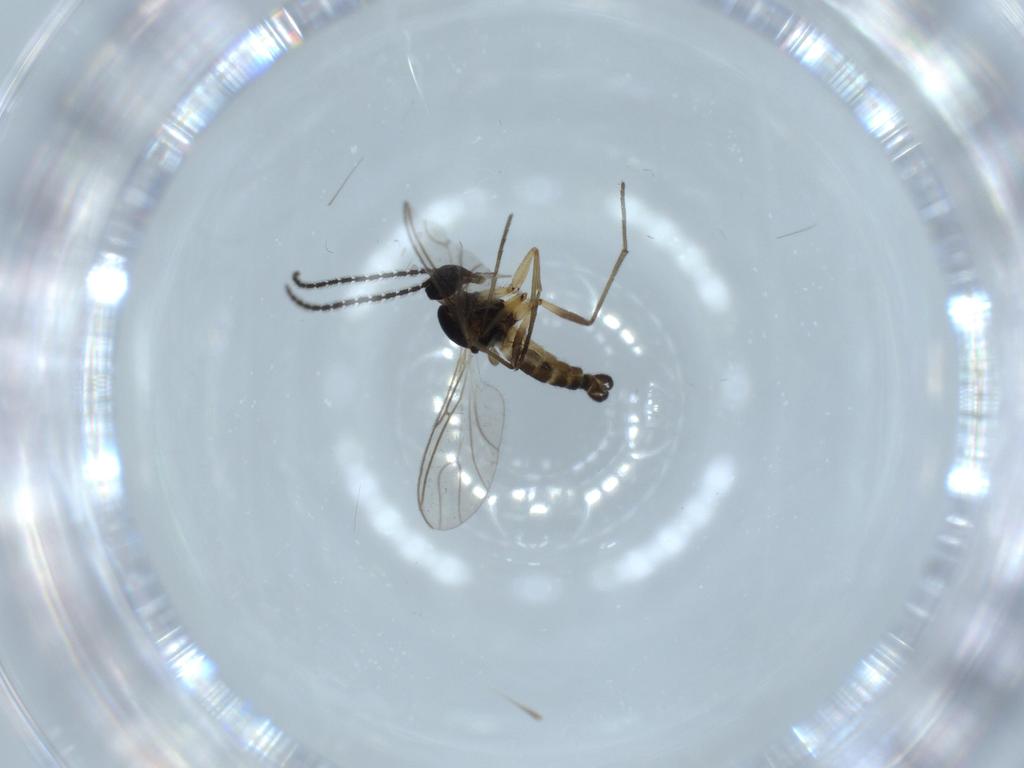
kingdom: Animalia
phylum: Arthropoda
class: Insecta
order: Diptera
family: Sciaridae
